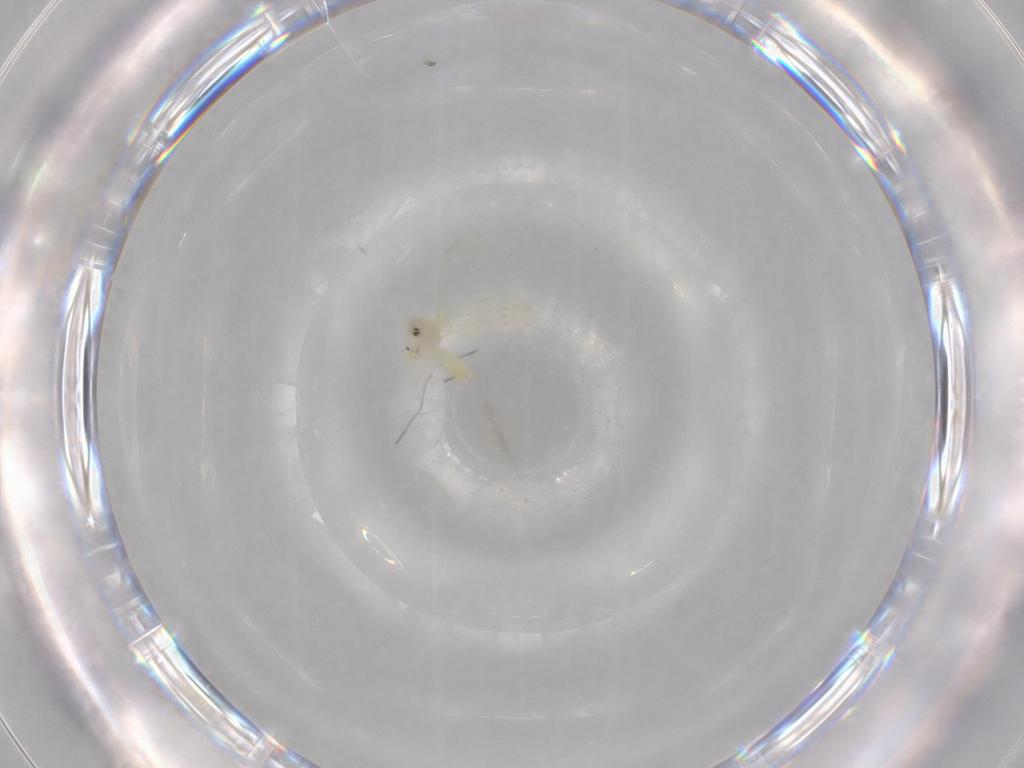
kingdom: Animalia
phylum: Arthropoda
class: Insecta
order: Hemiptera
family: Aleyrodidae
